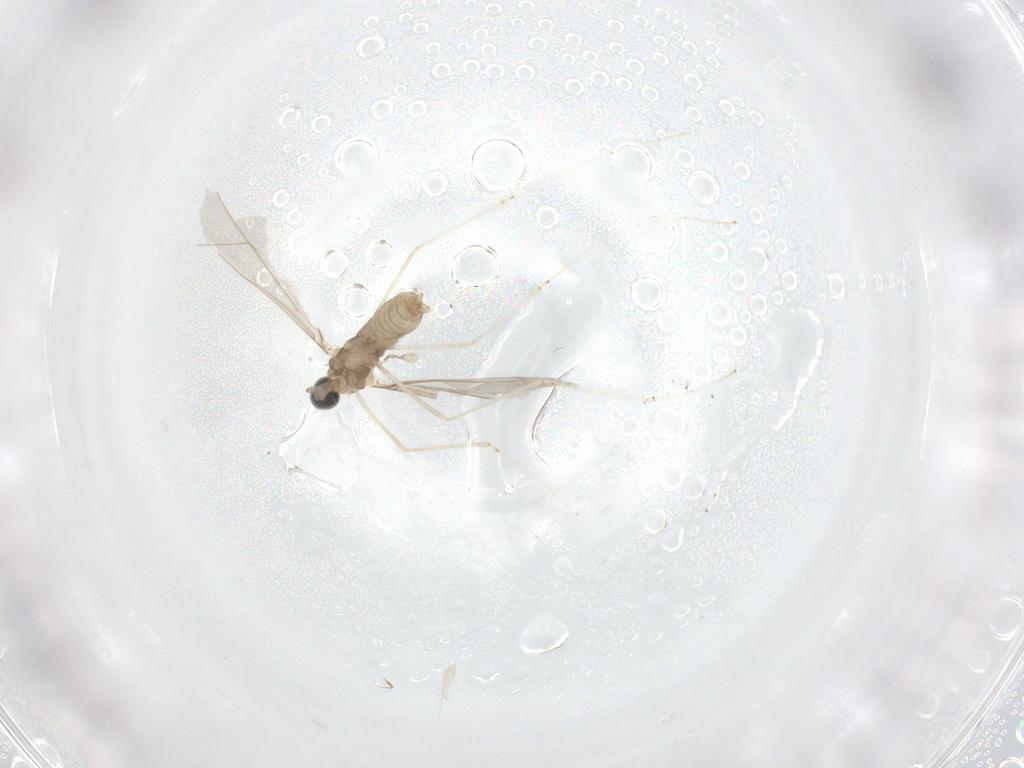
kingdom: Animalia
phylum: Arthropoda
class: Insecta
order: Diptera
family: Cecidomyiidae
